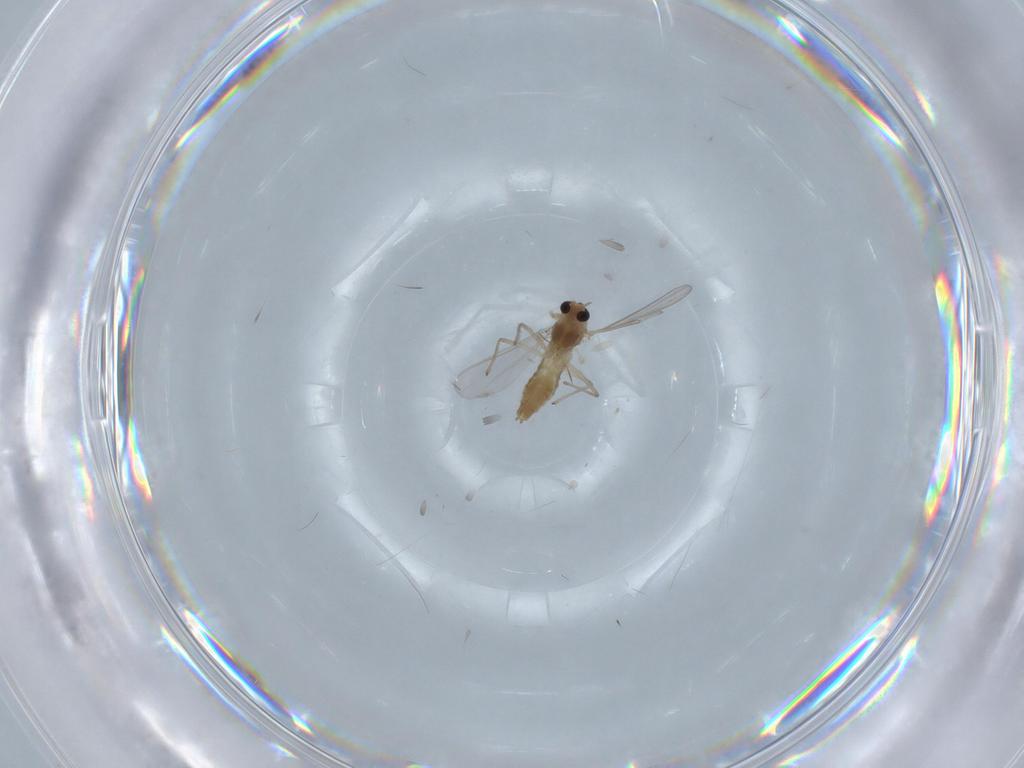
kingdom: Animalia
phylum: Arthropoda
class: Insecta
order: Diptera
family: Chironomidae
